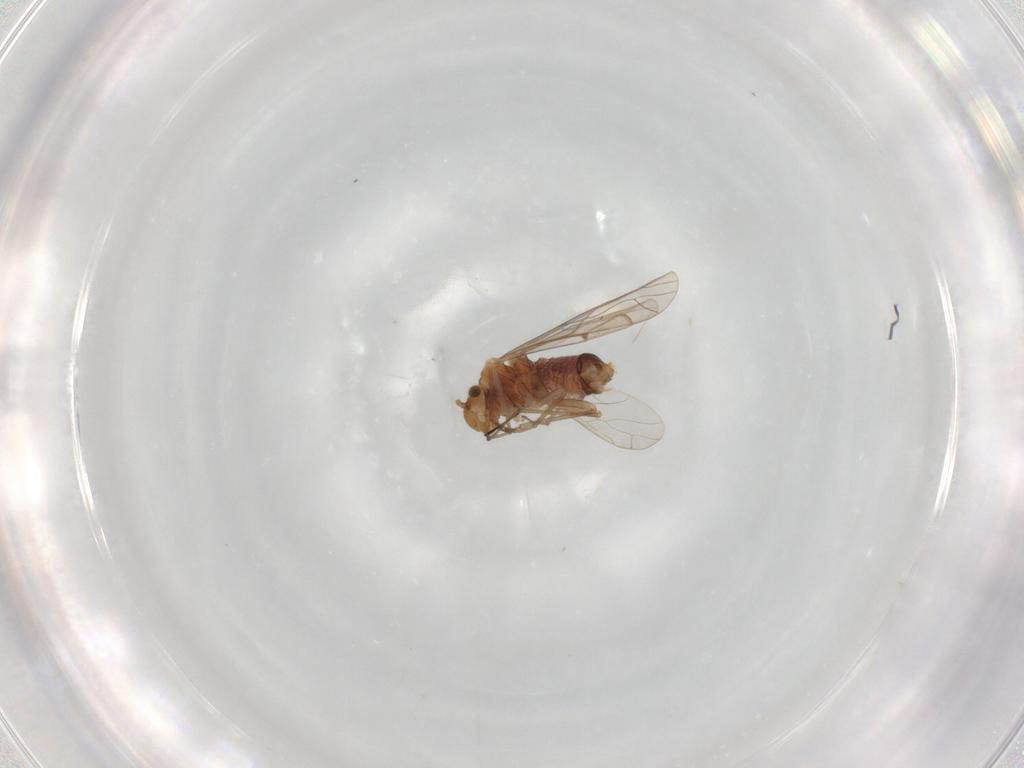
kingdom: Animalia
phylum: Arthropoda
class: Insecta
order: Psocodea
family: Lachesillidae
